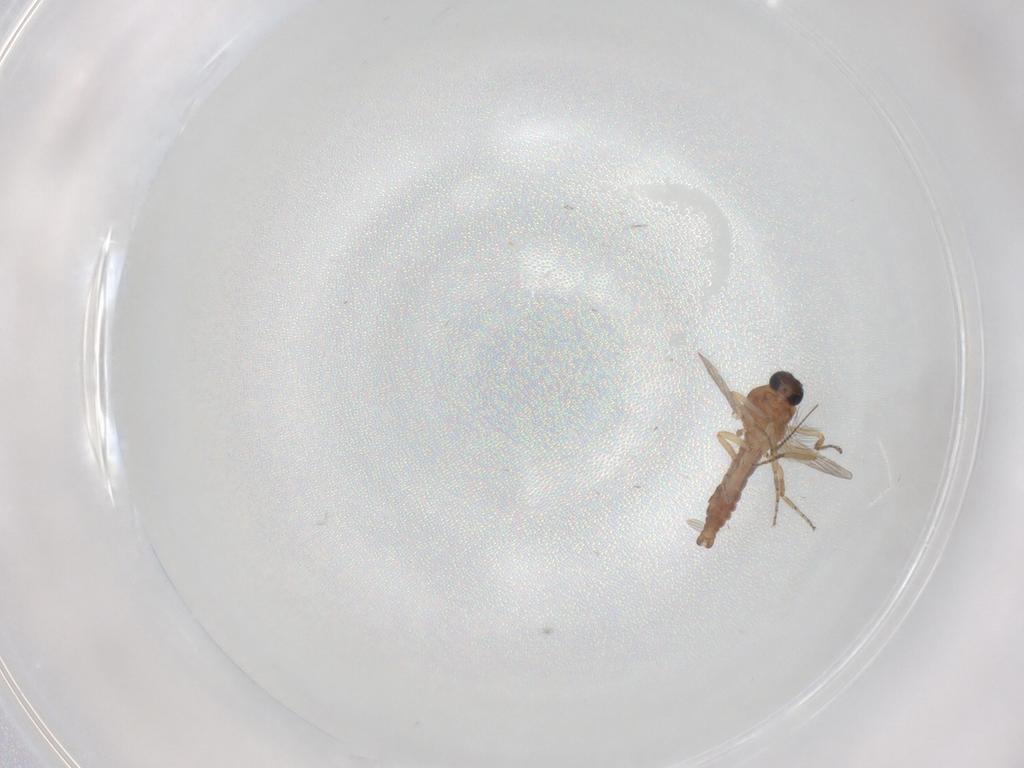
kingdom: Animalia
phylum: Arthropoda
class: Insecta
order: Diptera
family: Ceratopogonidae
